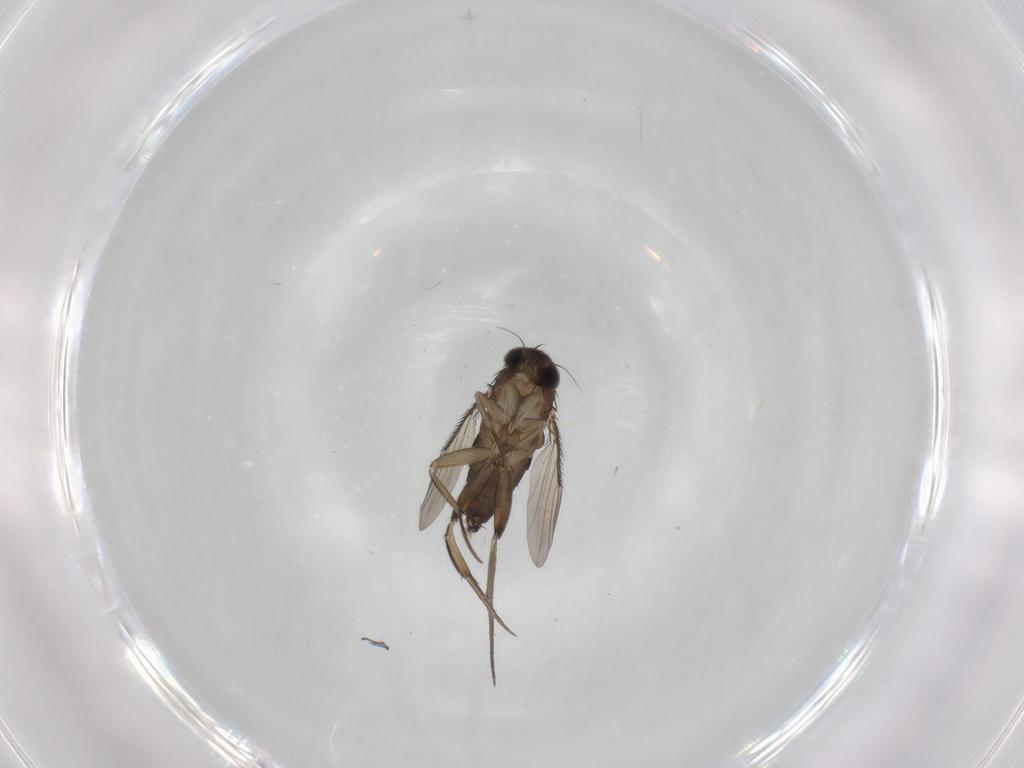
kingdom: Animalia
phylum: Arthropoda
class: Insecta
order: Diptera
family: Phoridae
